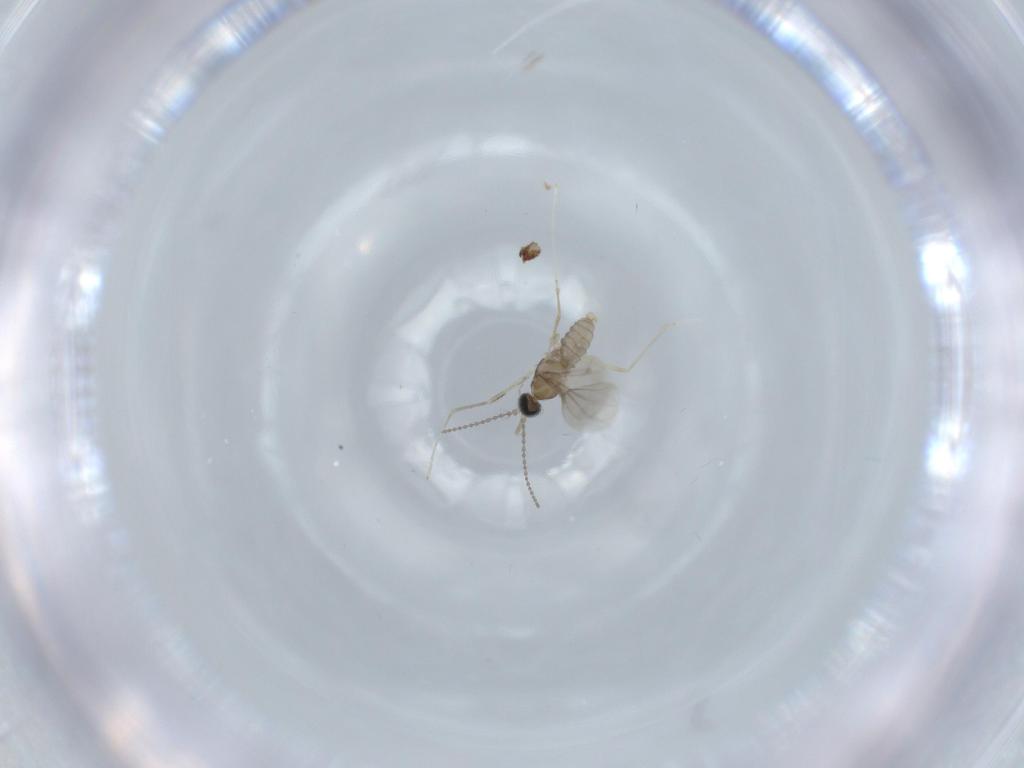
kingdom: Animalia
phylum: Arthropoda
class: Insecta
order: Diptera
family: Cecidomyiidae
